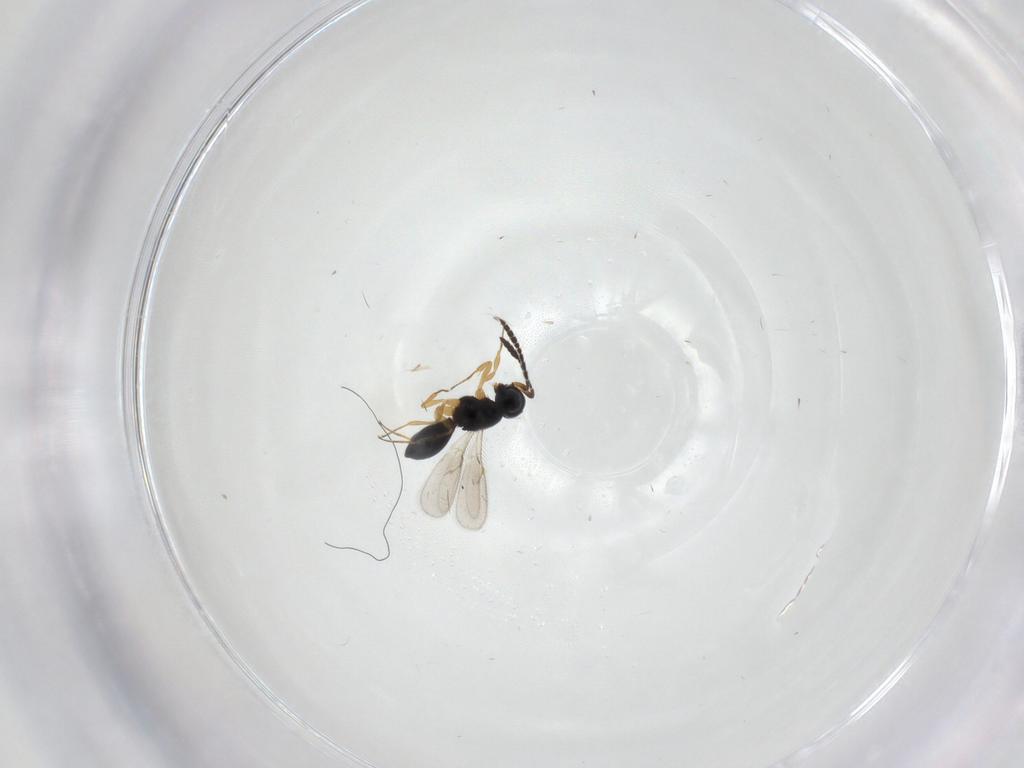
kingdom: Animalia
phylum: Arthropoda
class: Insecta
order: Hymenoptera
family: Scelionidae
